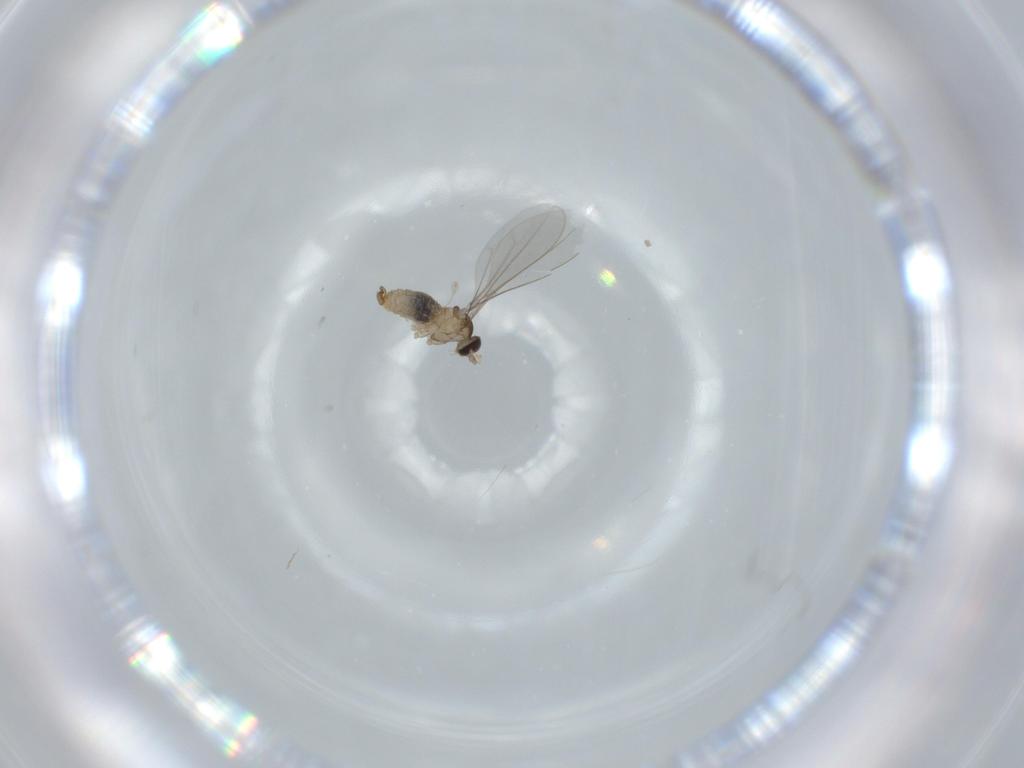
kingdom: Animalia
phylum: Arthropoda
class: Insecta
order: Diptera
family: Cecidomyiidae
